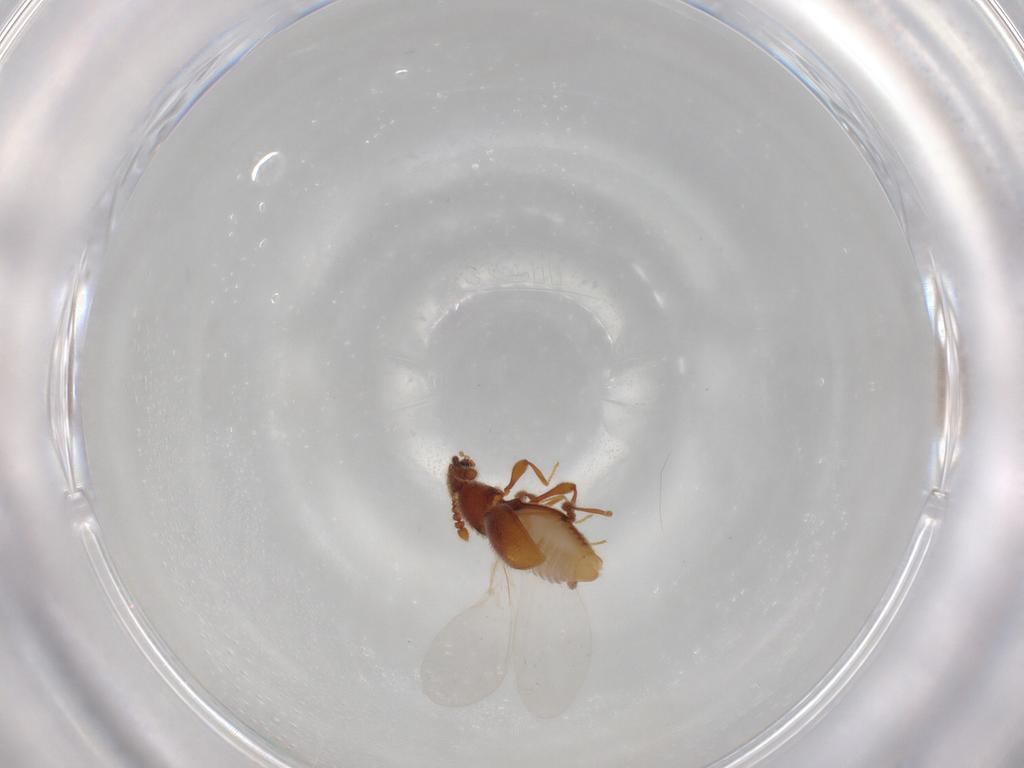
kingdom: Animalia
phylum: Arthropoda
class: Insecta
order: Coleoptera
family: Staphylinidae
